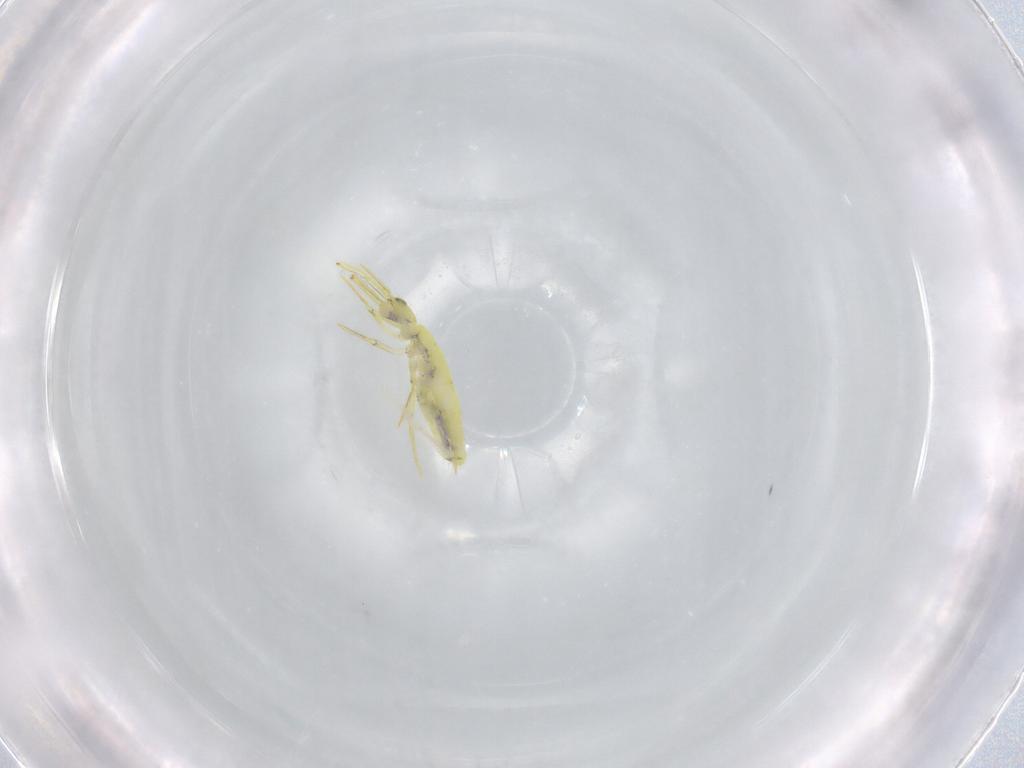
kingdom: Animalia
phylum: Arthropoda
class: Collembola
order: Entomobryomorpha
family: Entomobryidae
